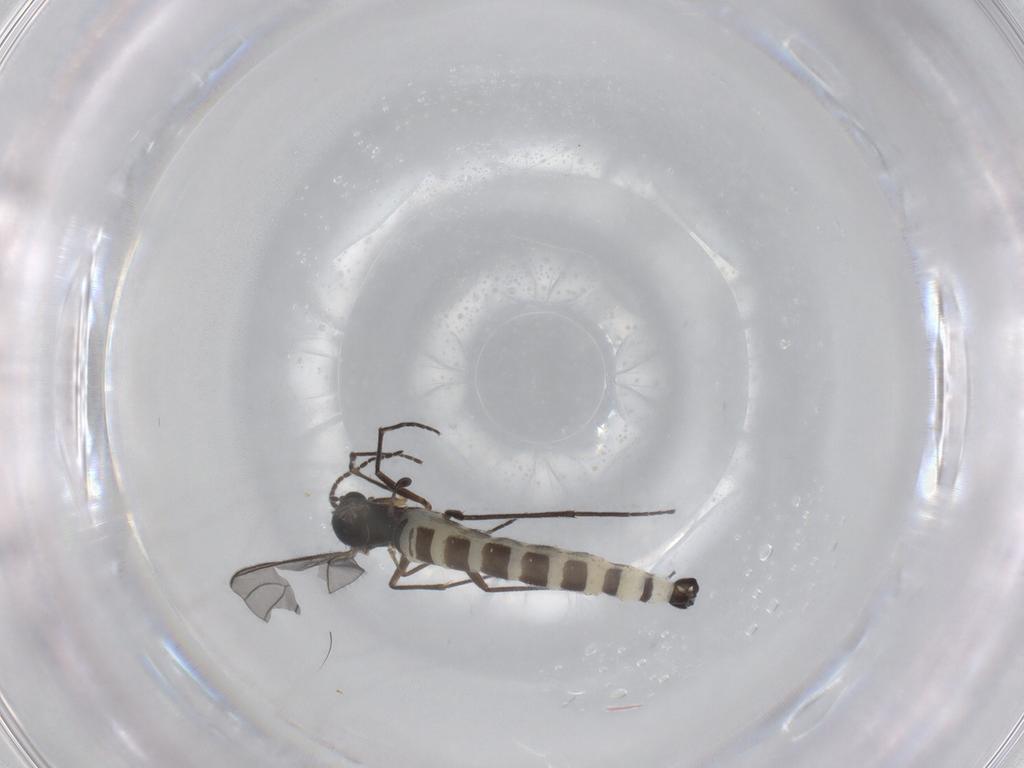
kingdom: Animalia
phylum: Arthropoda
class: Insecta
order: Diptera
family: Sciaridae
